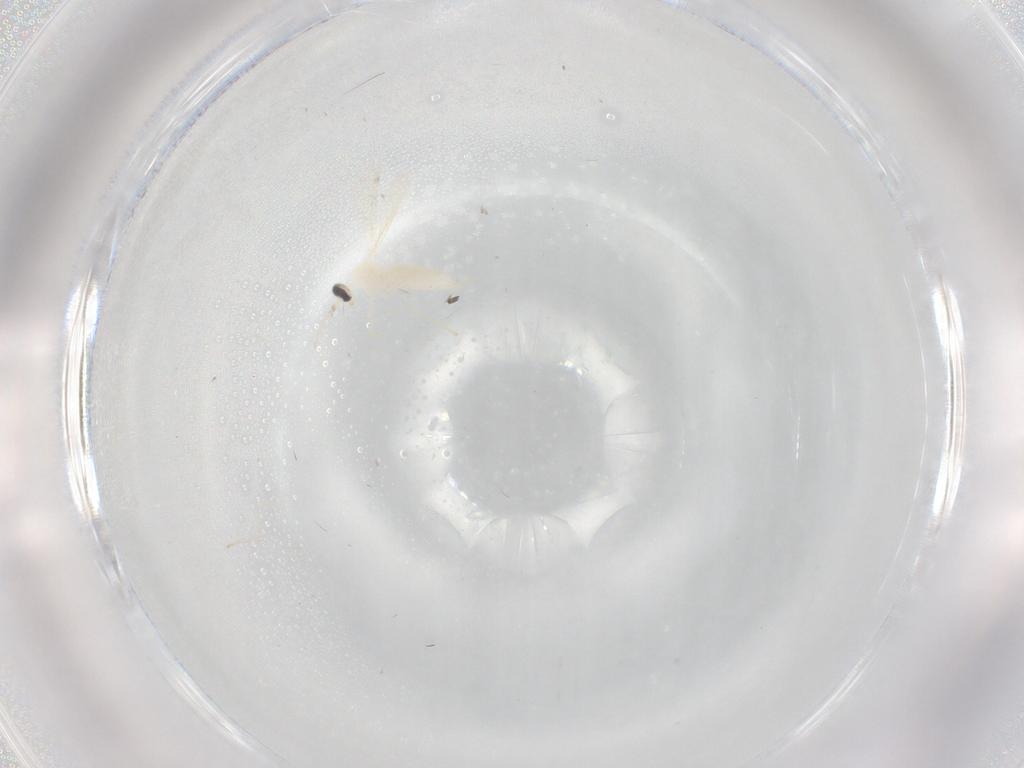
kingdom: Animalia
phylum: Arthropoda
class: Insecta
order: Diptera
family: Cecidomyiidae
